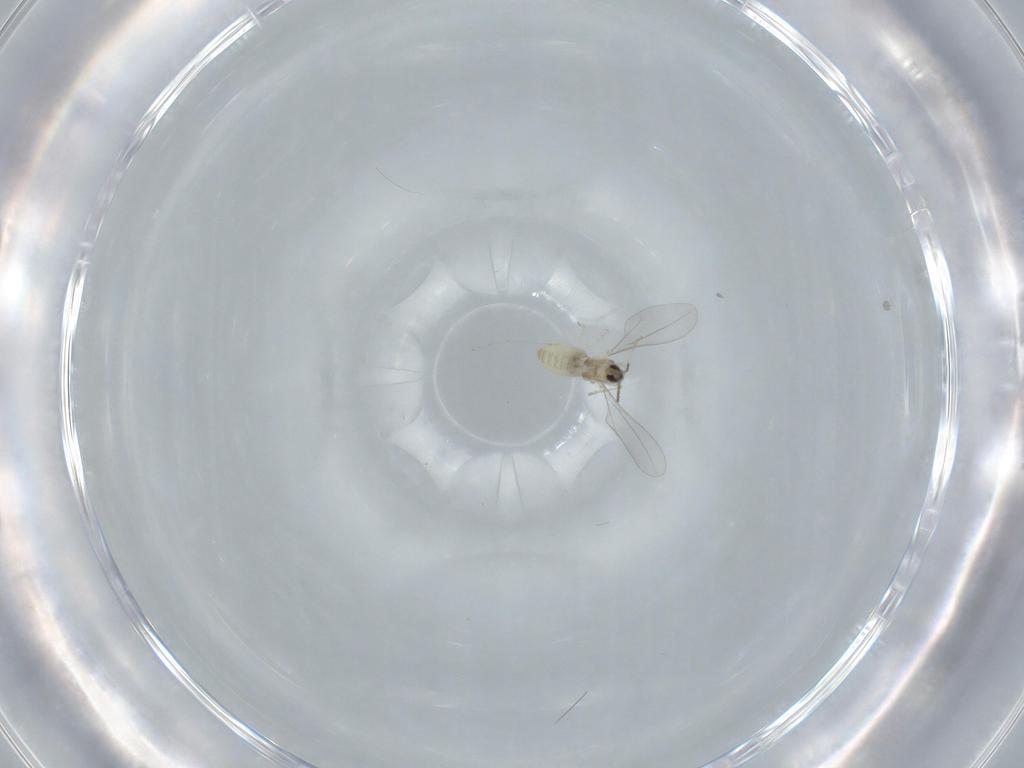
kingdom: Animalia
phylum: Arthropoda
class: Insecta
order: Diptera
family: Cecidomyiidae
